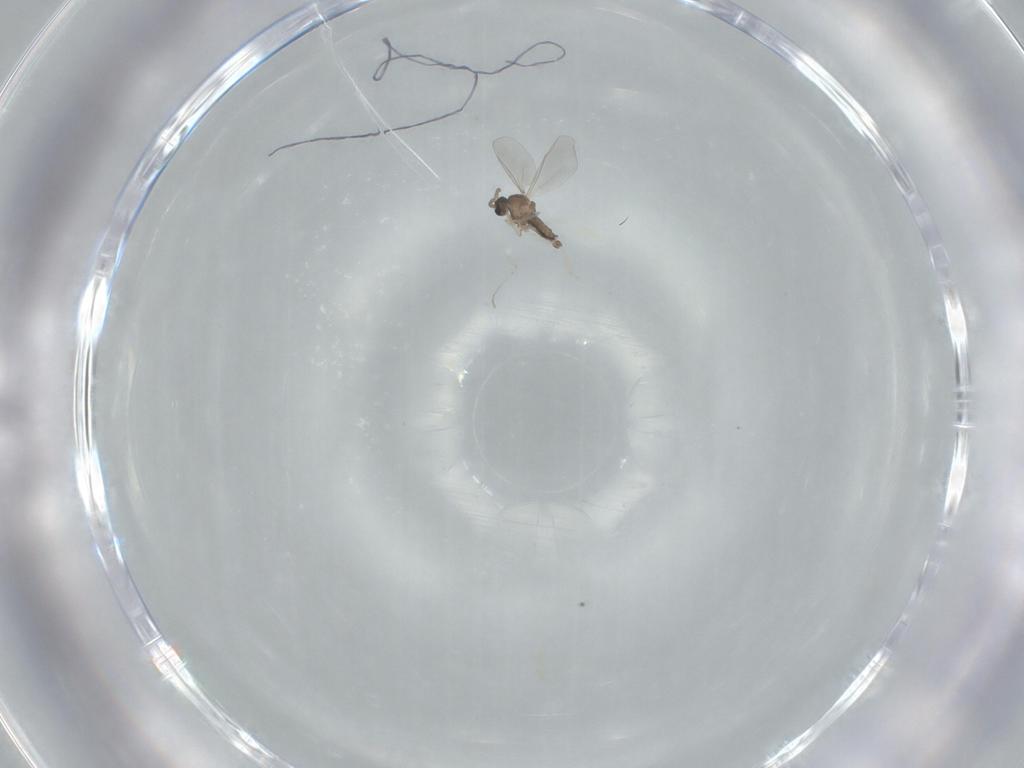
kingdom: Animalia
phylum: Arthropoda
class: Insecta
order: Diptera
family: Cecidomyiidae
